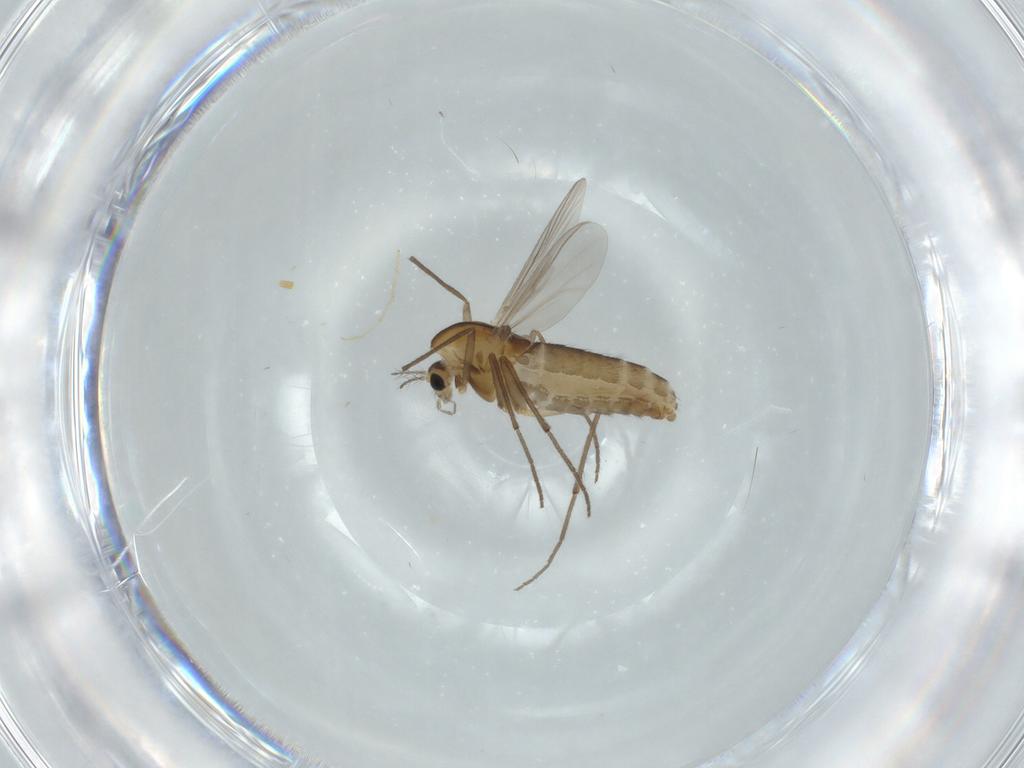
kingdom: Animalia
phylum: Arthropoda
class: Insecta
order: Diptera
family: Chironomidae
